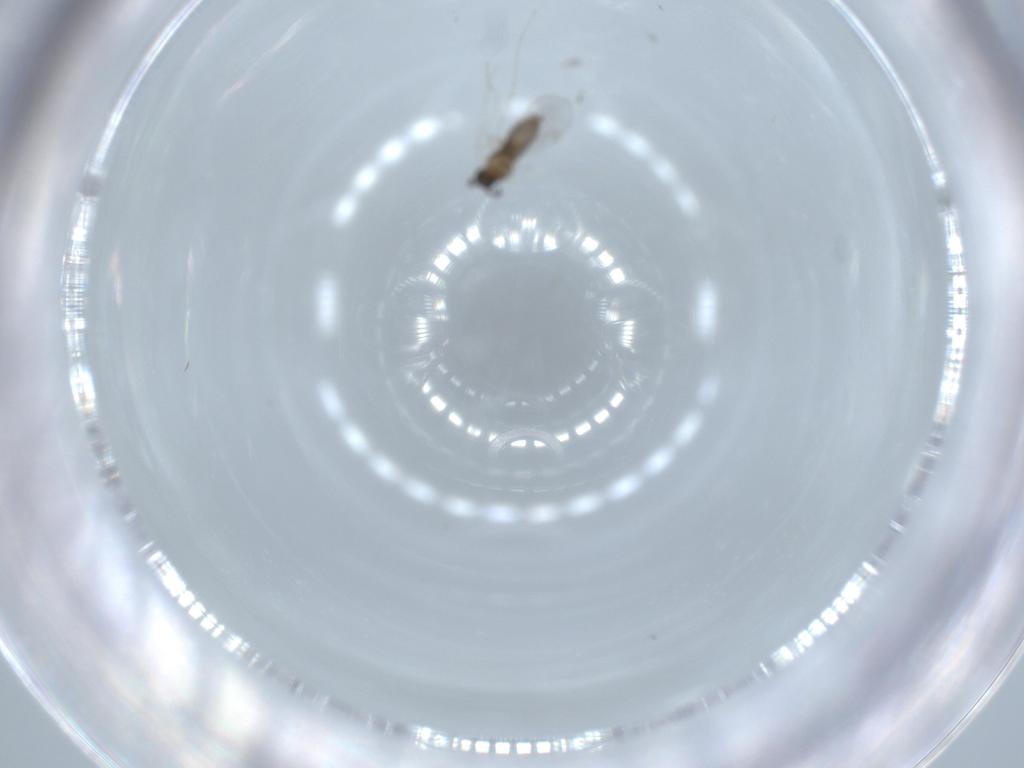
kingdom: Animalia
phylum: Arthropoda
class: Insecta
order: Diptera
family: Cecidomyiidae
